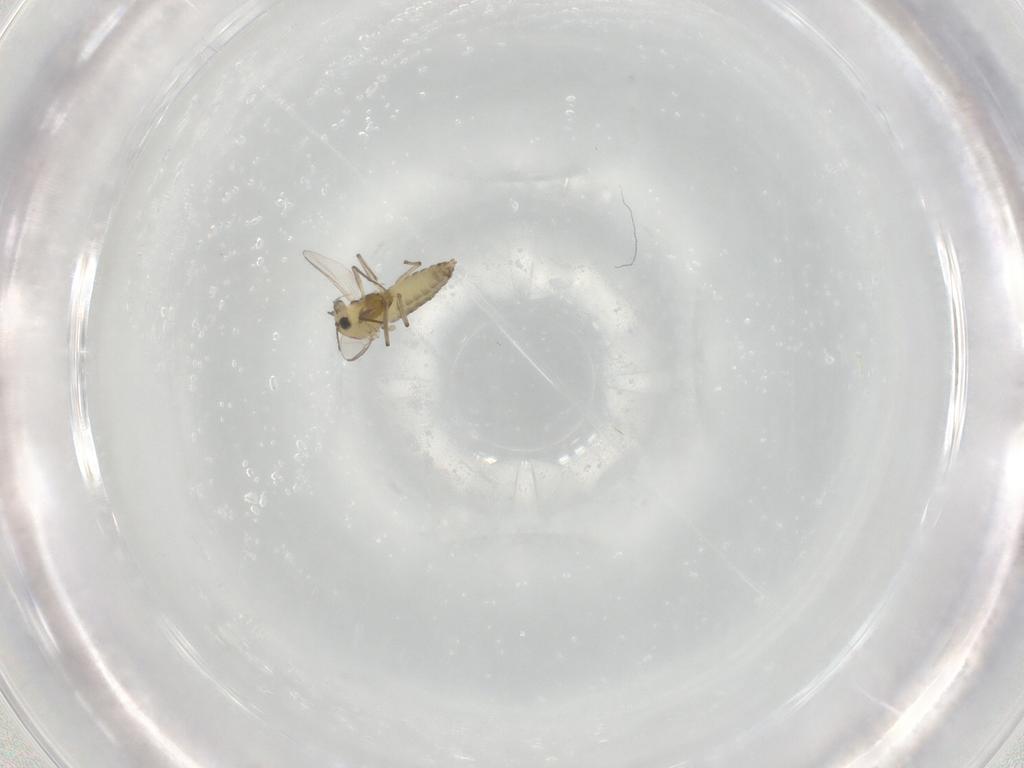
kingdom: Animalia
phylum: Arthropoda
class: Insecta
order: Diptera
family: Chironomidae
